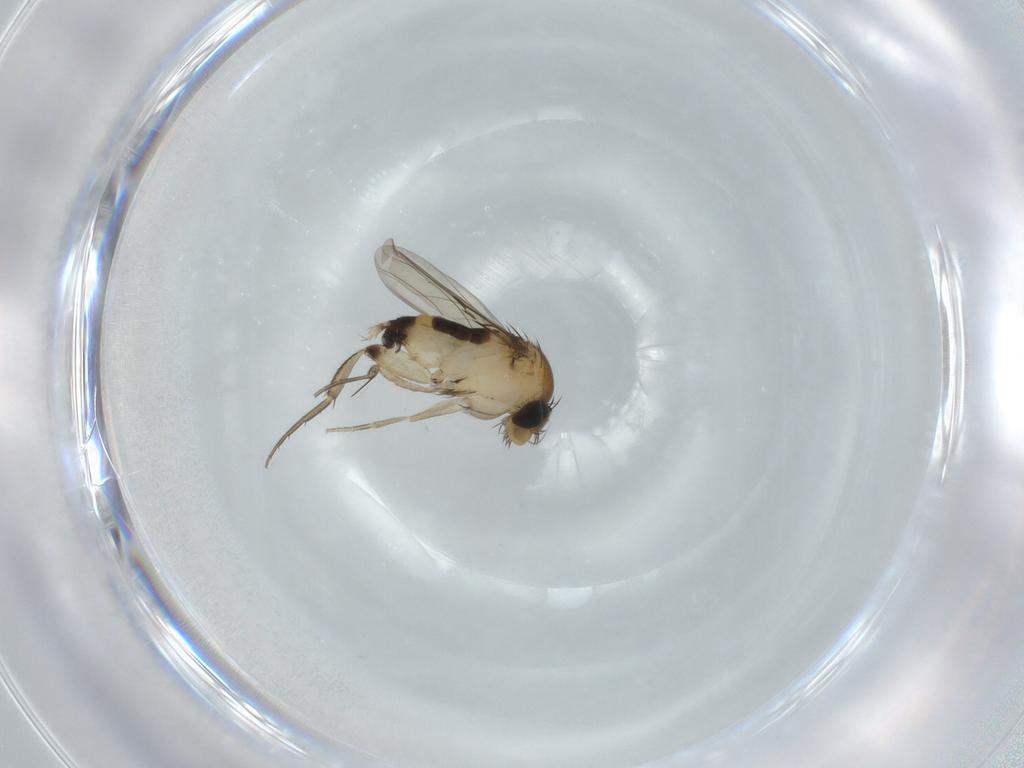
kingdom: Animalia
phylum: Arthropoda
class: Insecta
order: Diptera
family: Phoridae
